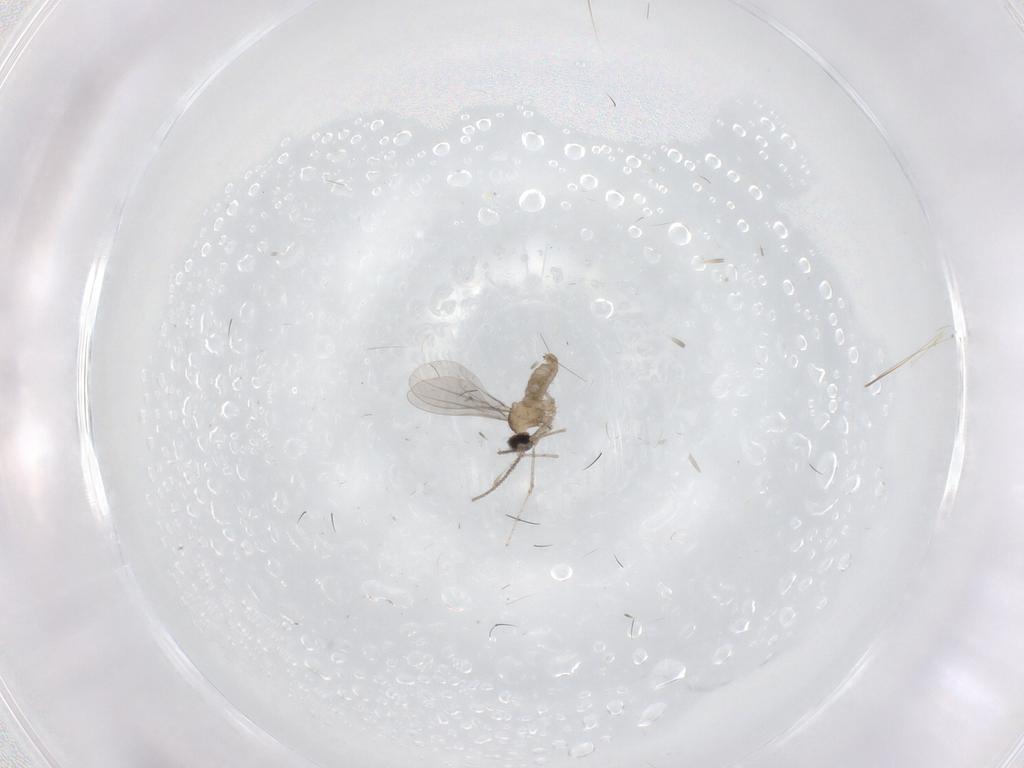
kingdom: Animalia
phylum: Arthropoda
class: Insecta
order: Diptera
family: Cecidomyiidae
